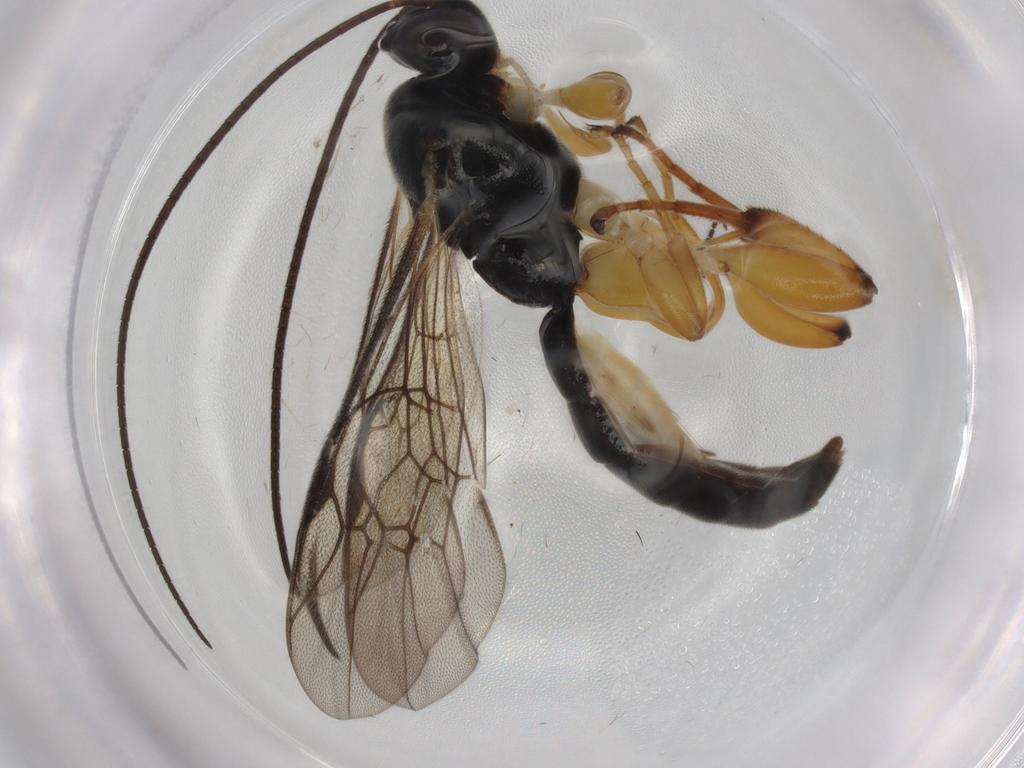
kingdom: Animalia
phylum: Arthropoda
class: Insecta
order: Hymenoptera
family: Ichneumonidae
